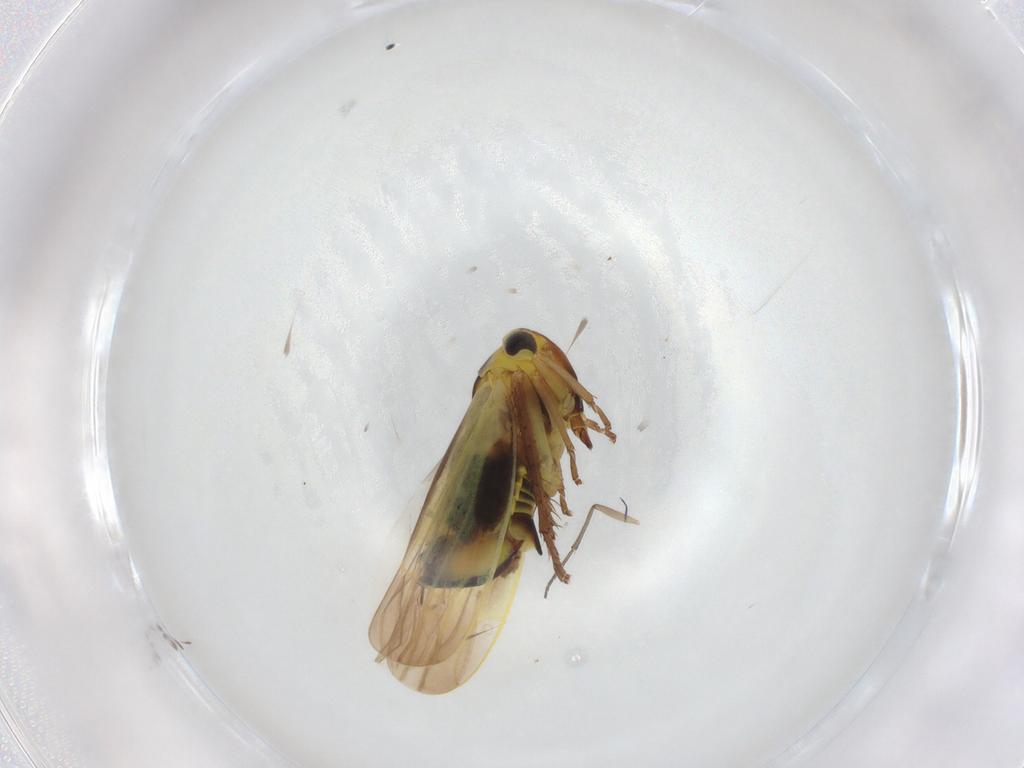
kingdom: Animalia
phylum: Arthropoda
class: Insecta
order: Hemiptera
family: Cicadellidae
